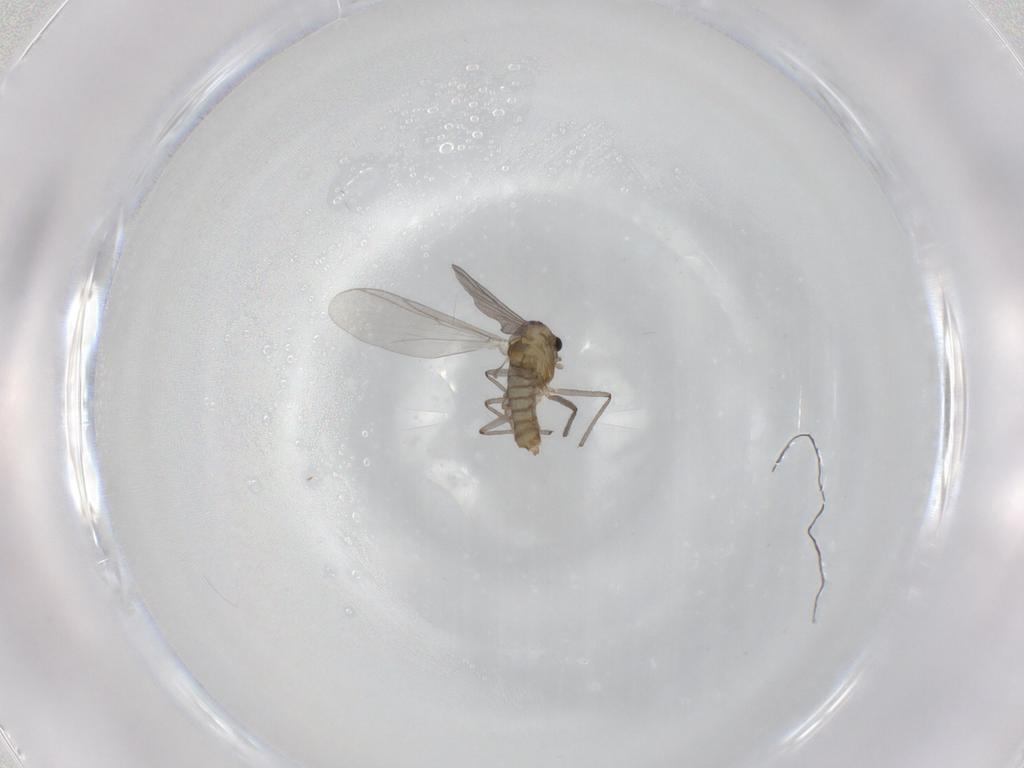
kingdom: Animalia
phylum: Arthropoda
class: Insecta
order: Diptera
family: Chironomidae
